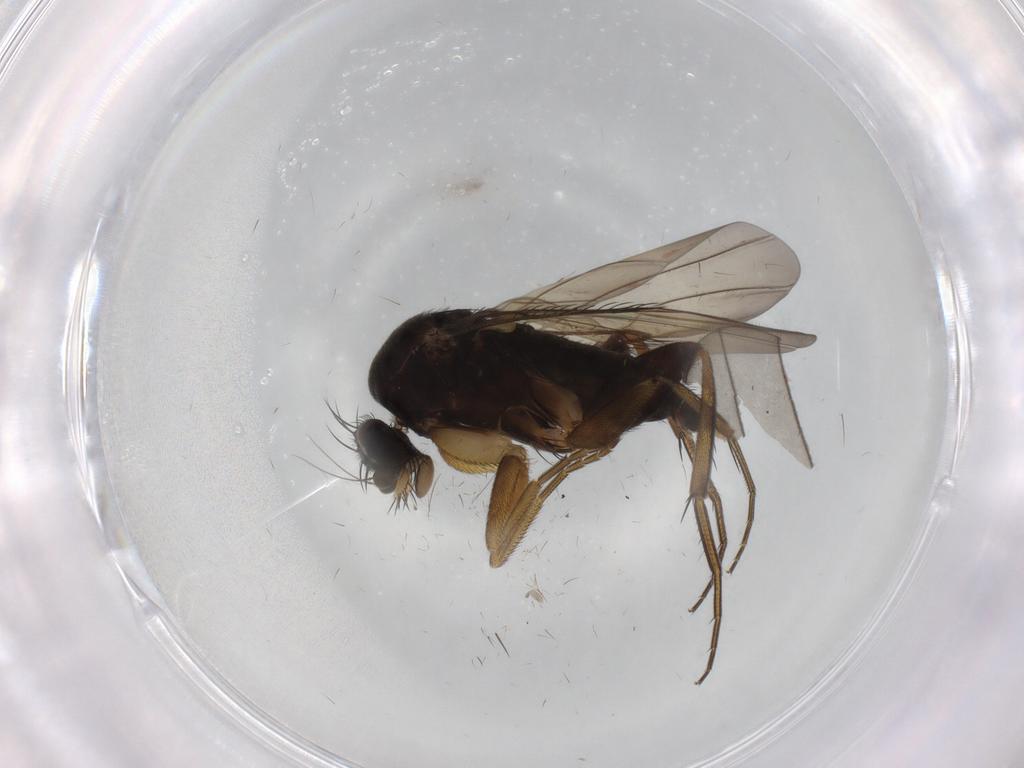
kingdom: Animalia
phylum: Arthropoda
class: Insecta
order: Diptera
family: Phoridae
